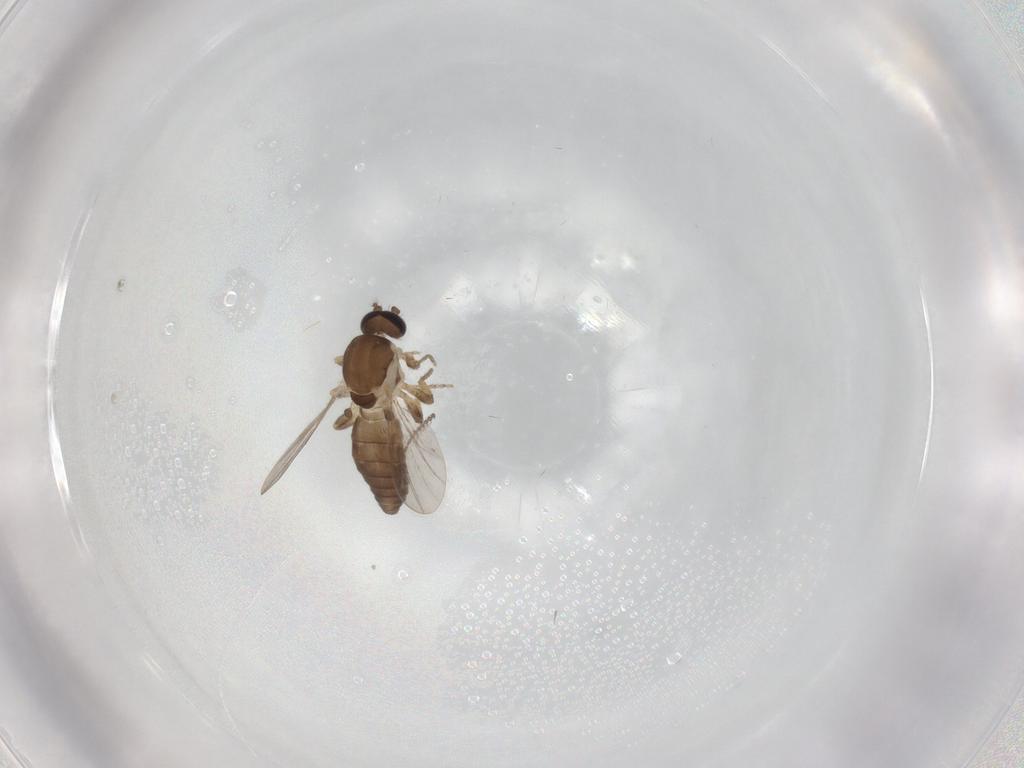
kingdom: Animalia
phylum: Arthropoda
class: Insecta
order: Diptera
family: Ceratopogonidae
